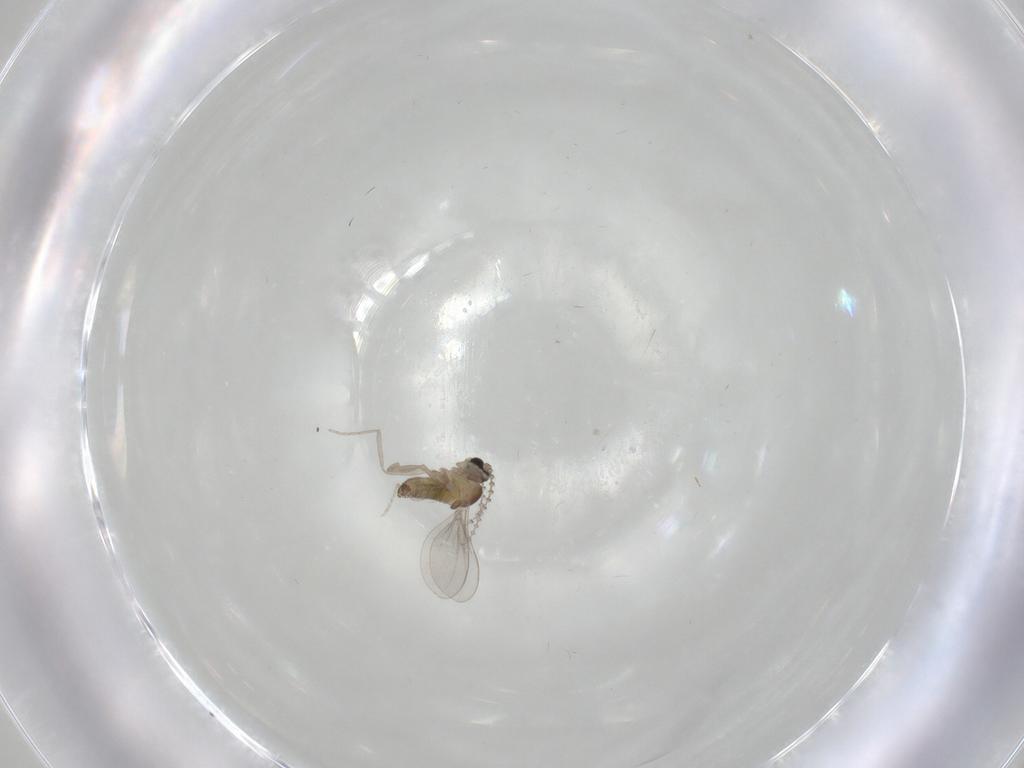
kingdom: Animalia
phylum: Arthropoda
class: Insecta
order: Diptera
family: Cecidomyiidae
